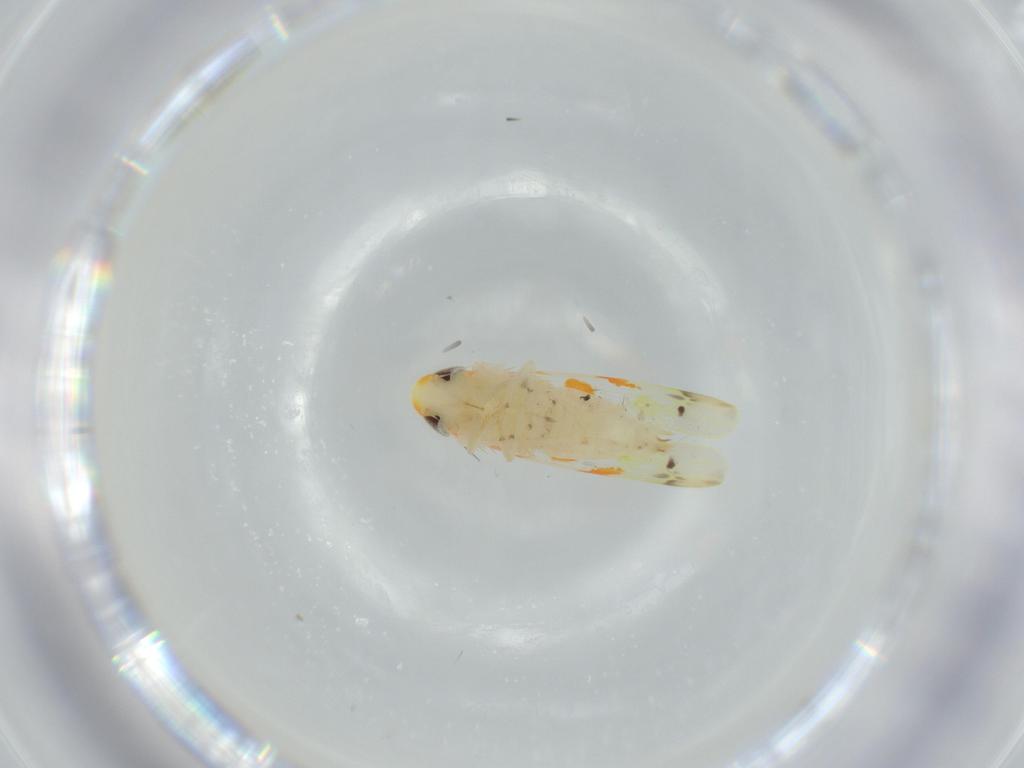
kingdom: Animalia
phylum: Arthropoda
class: Insecta
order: Hemiptera
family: Cicadellidae
